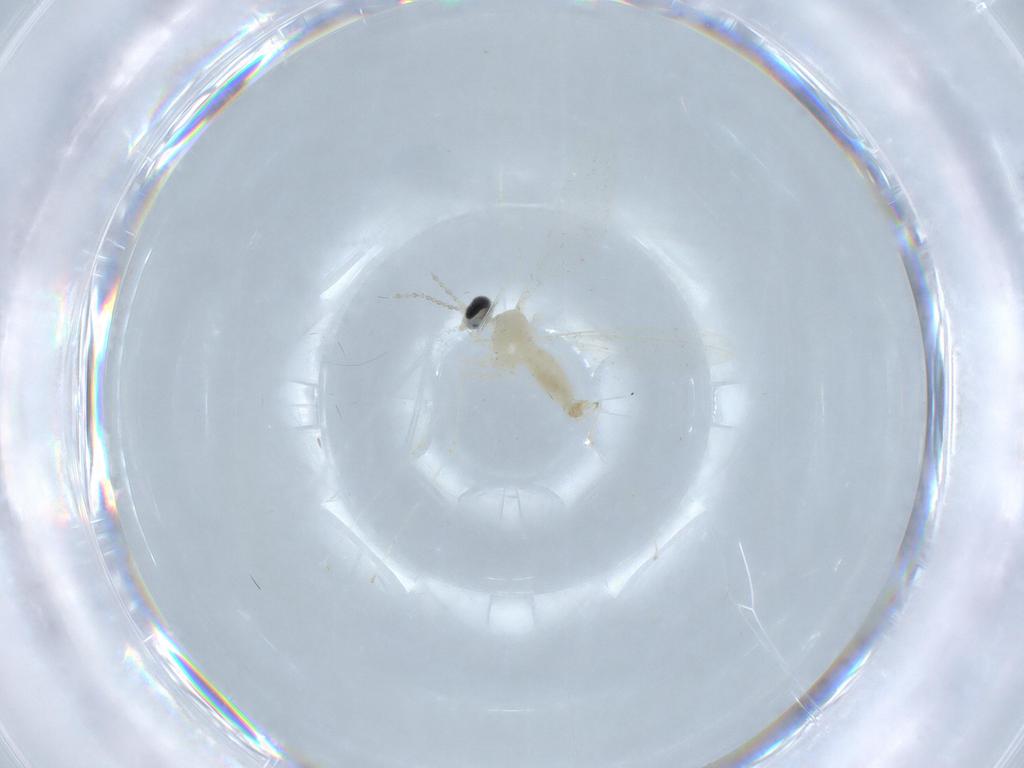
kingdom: Animalia
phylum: Arthropoda
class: Insecta
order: Diptera
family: Cecidomyiidae
